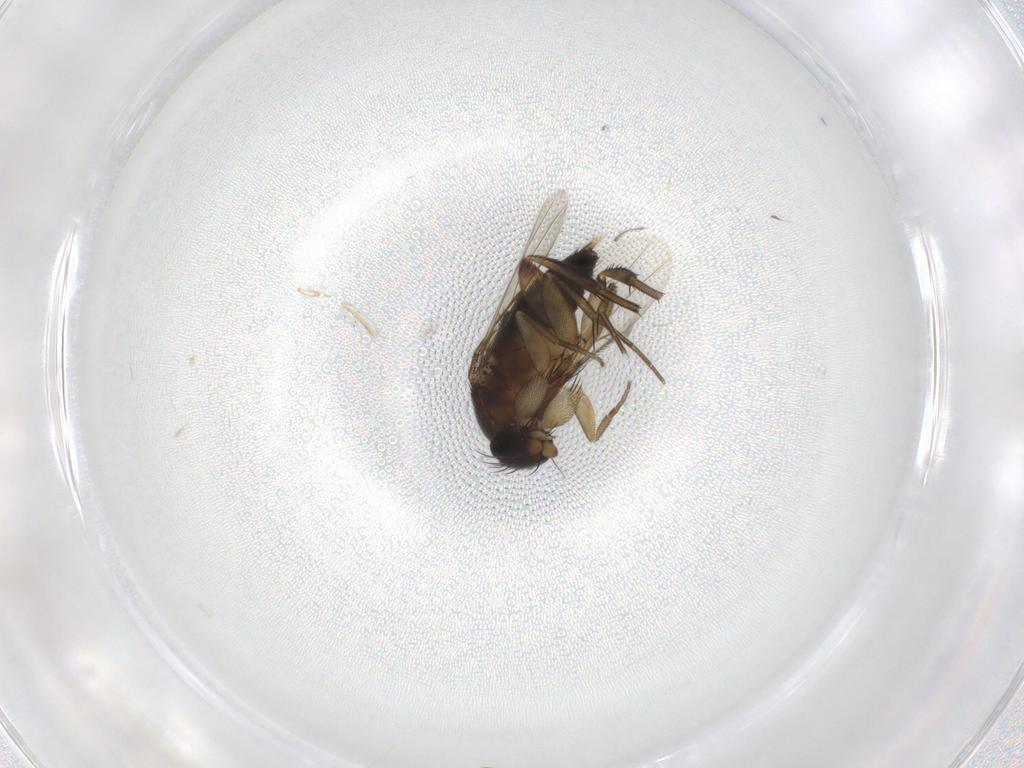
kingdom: Animalia
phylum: Arthropoda
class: Insecta
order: Diptera
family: Phoridae
